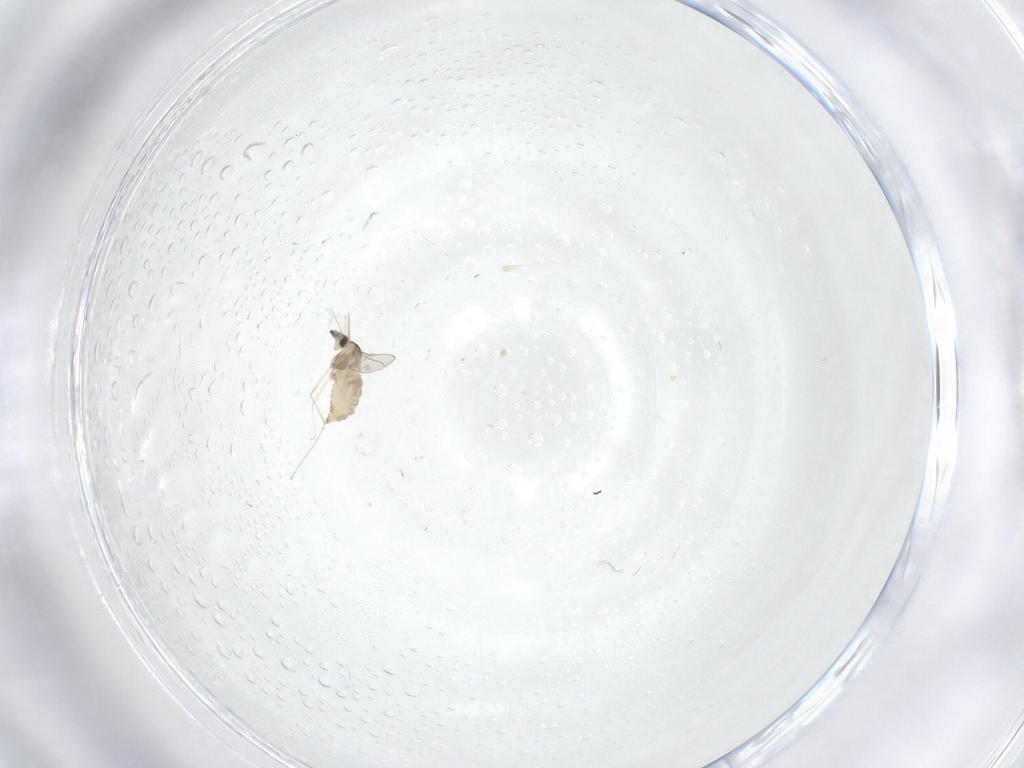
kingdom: Animalia
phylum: Arthropoda
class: Insecta
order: Diptera
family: Cecidomyiidae
